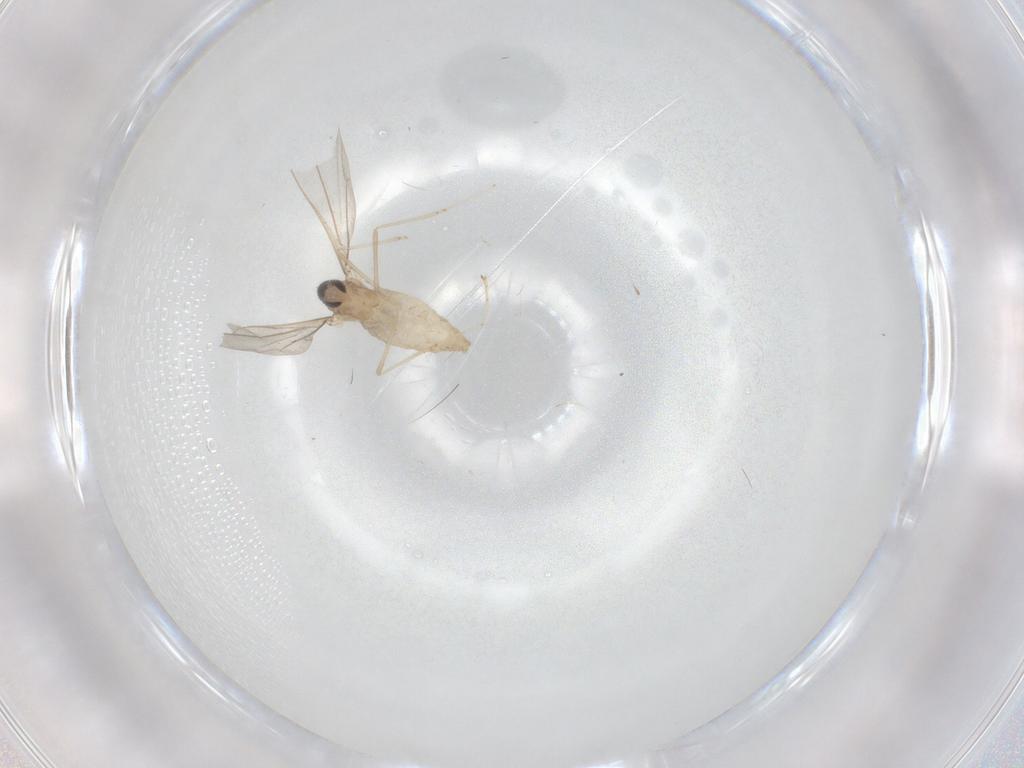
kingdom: Animalia
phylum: Arthropoda
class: Insecta
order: Diptera
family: Cecidomyiidae
